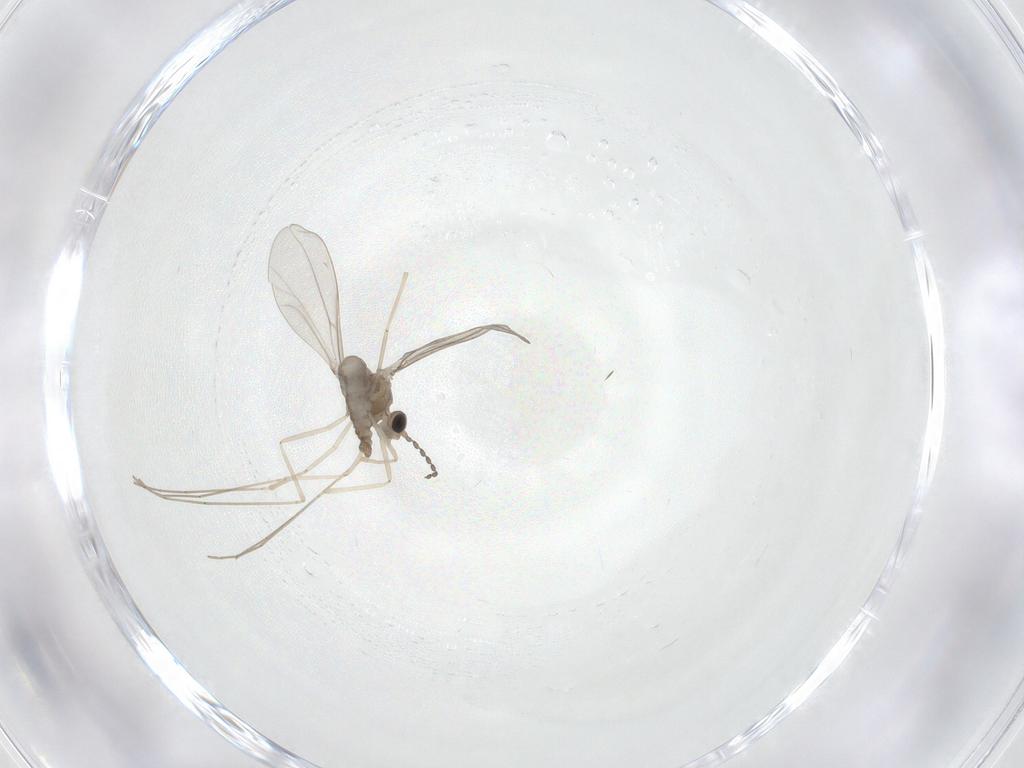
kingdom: Animalia
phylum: Arthropoda
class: Insecta
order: Diptera
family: Cecidomyiidae
